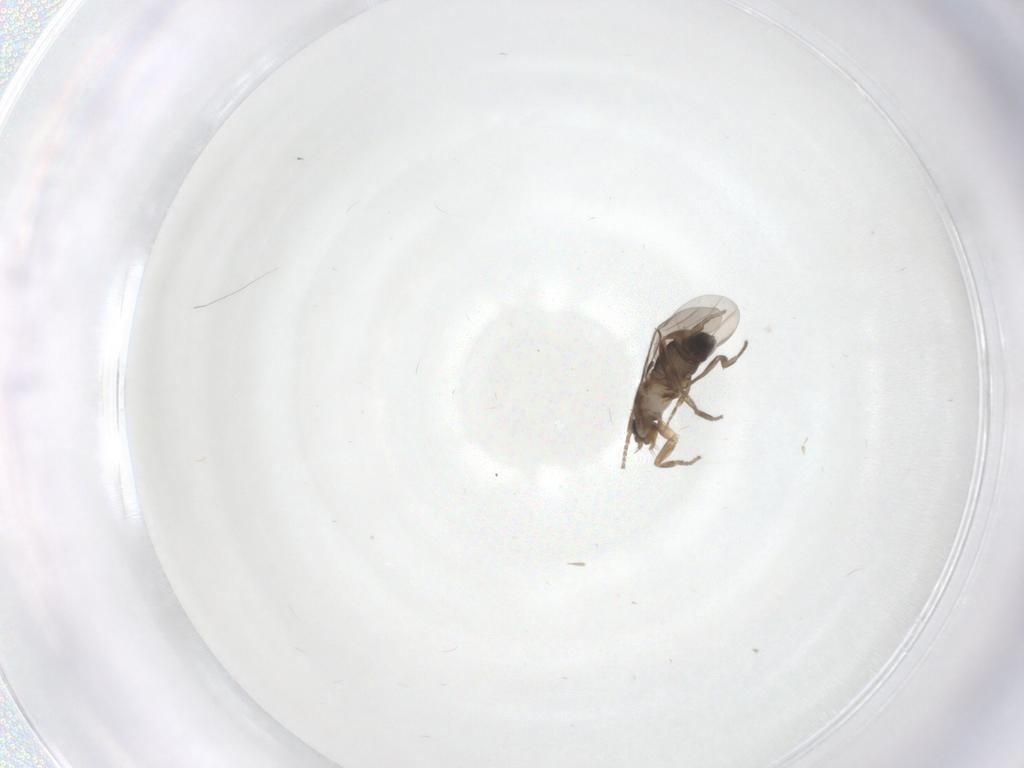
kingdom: Animalia
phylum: Arthropoda
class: Insecta
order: Diptera
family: Phoridae
